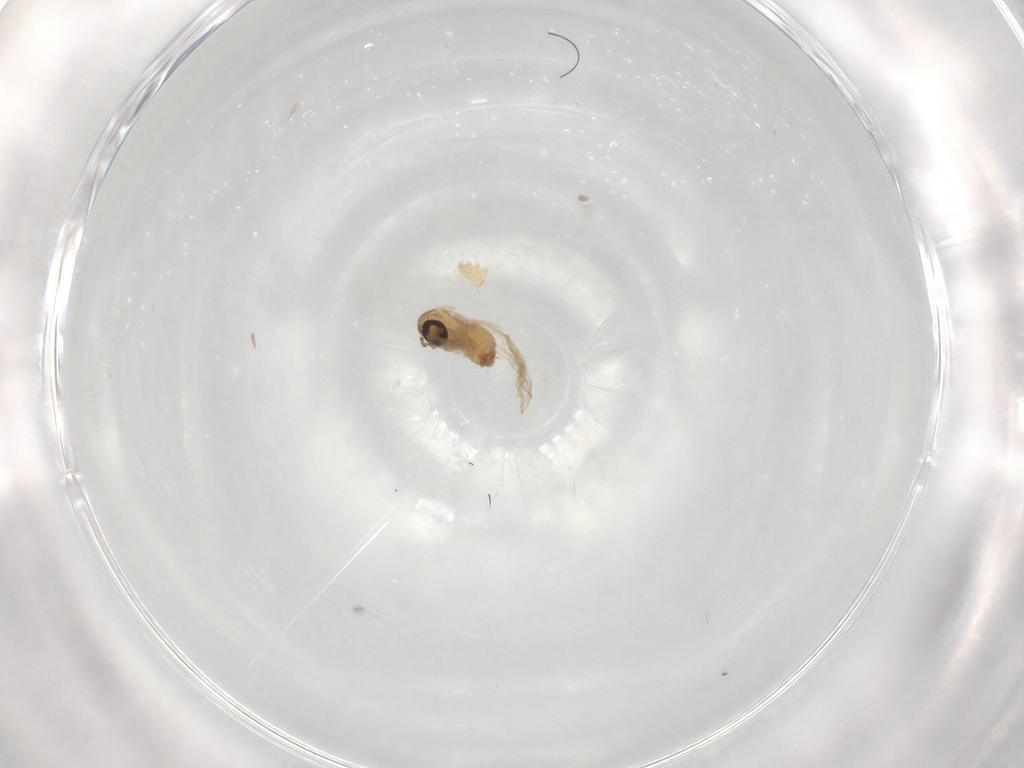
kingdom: Animalia
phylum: Arthropoda
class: Insecta
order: Diptera
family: Psychodidae
